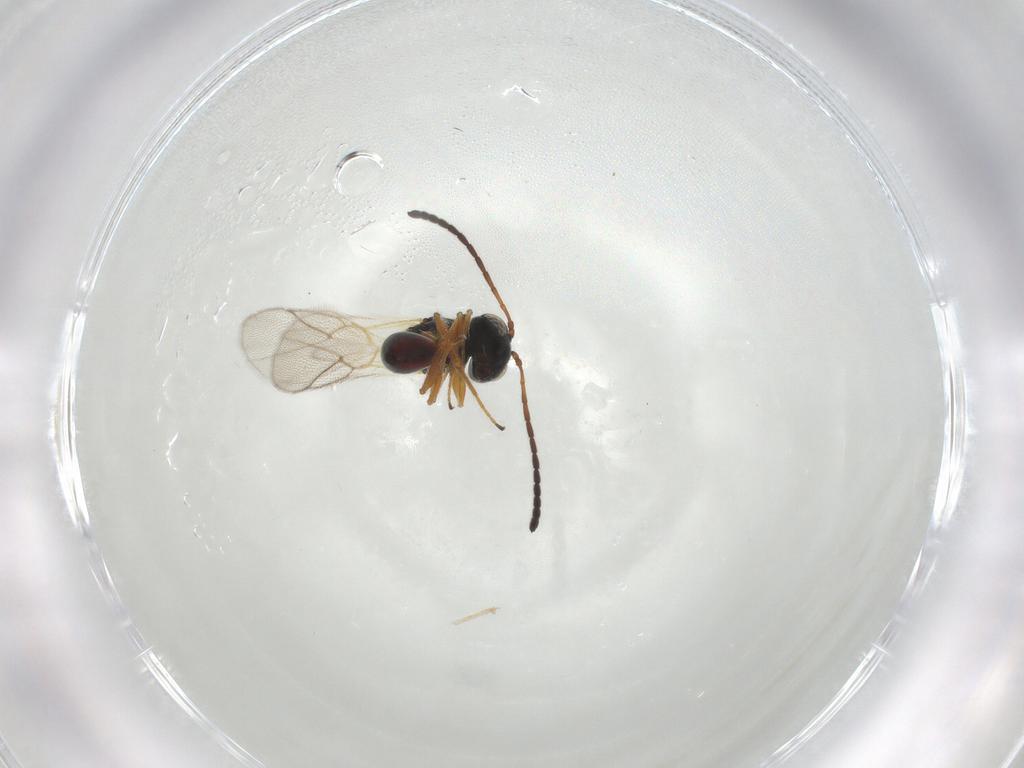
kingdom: Animalia
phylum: Arthropoda
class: Insecta
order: Hymenoptera
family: Figitidae
